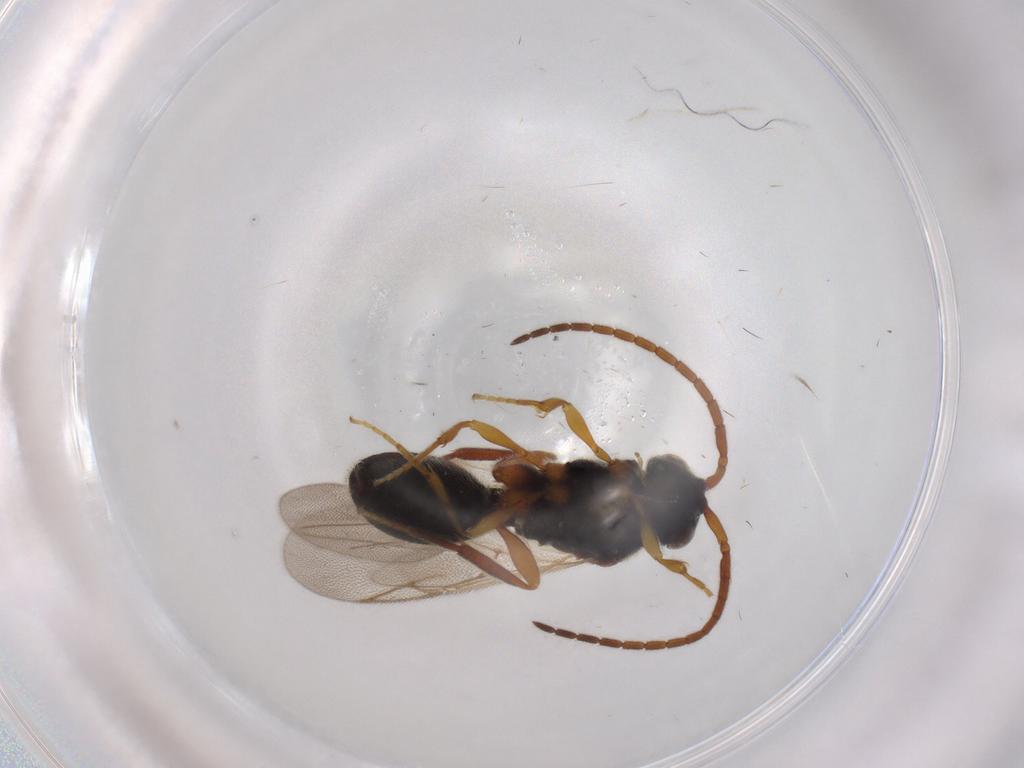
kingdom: Animalia
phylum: Arthropoda
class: Insecta
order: Hymenoptera
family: Diapriidae
